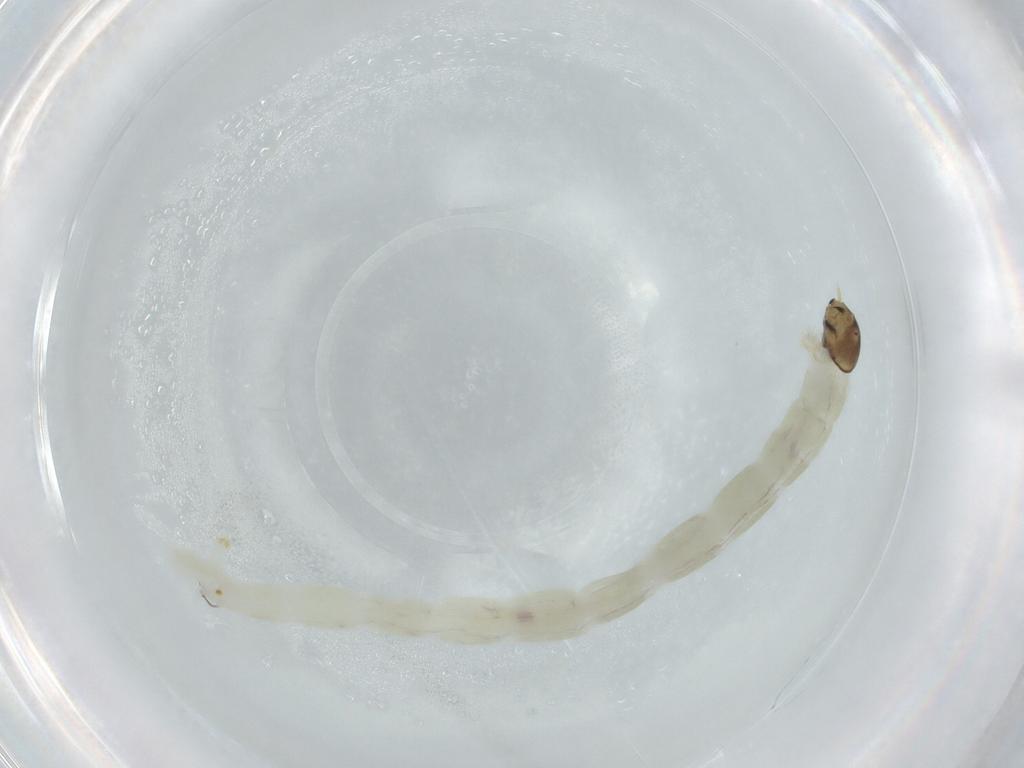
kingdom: Animalia
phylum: Arthropoda
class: Insecta
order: Diptera
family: Chironomidae
